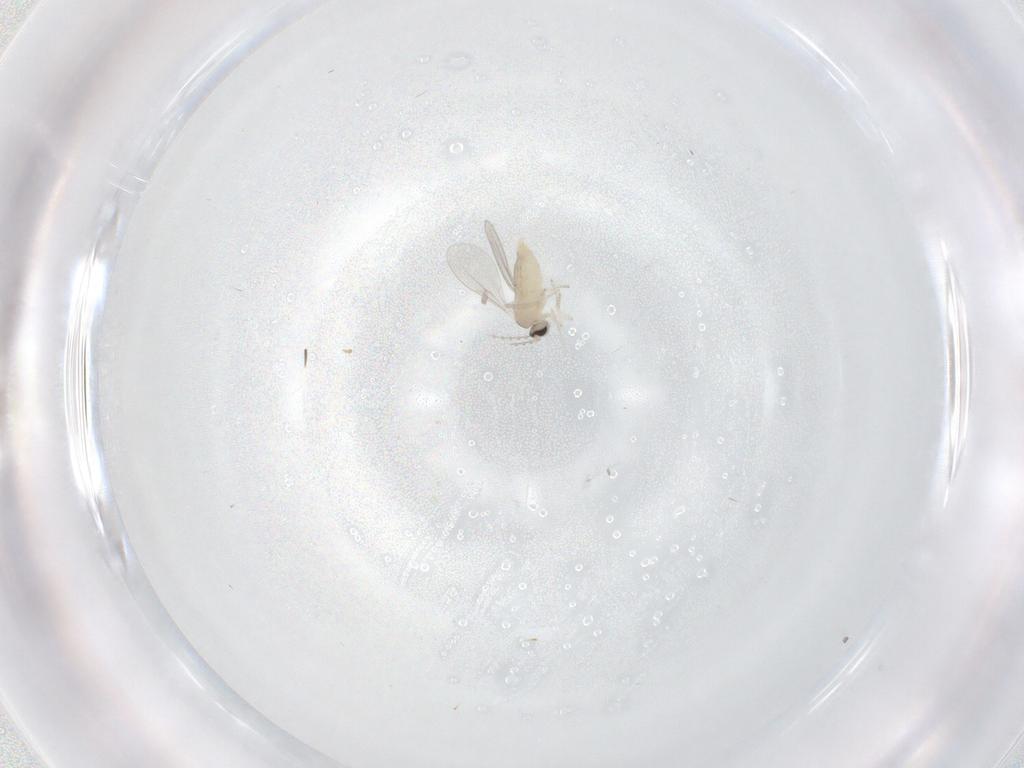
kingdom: Animalia
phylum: Arthropoda
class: Insecta
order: Diptera
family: Cecidomyiidae
